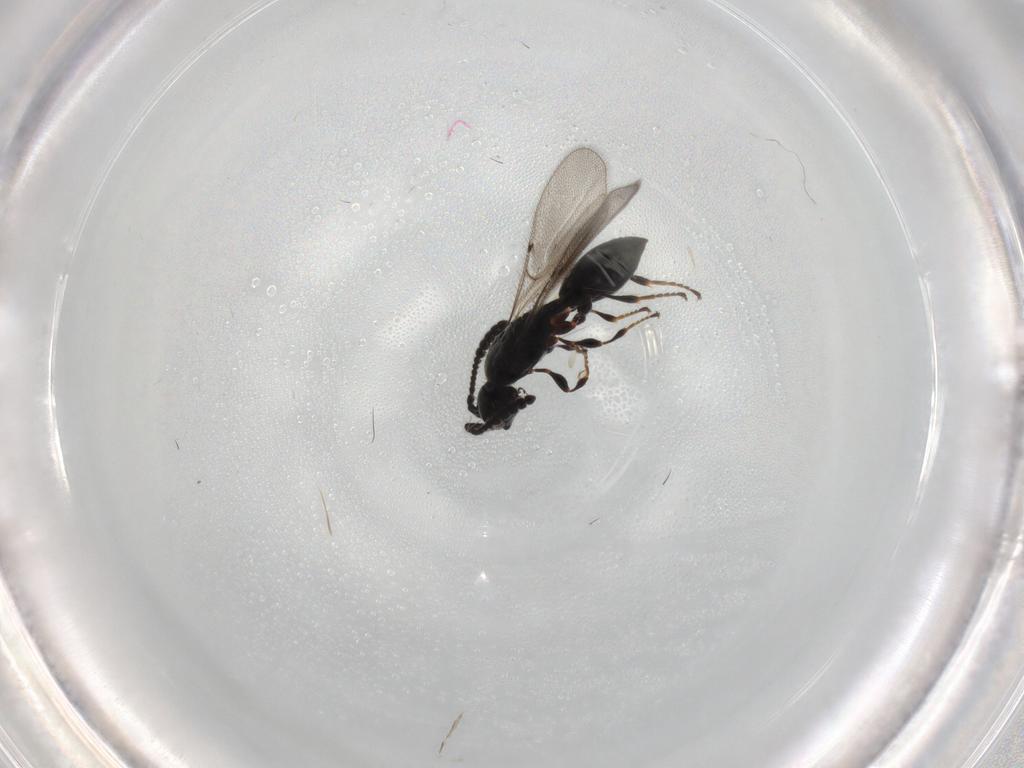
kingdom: Animalia
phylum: Arthropoda
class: Insecta
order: Hymenoptera
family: Diapriidae
